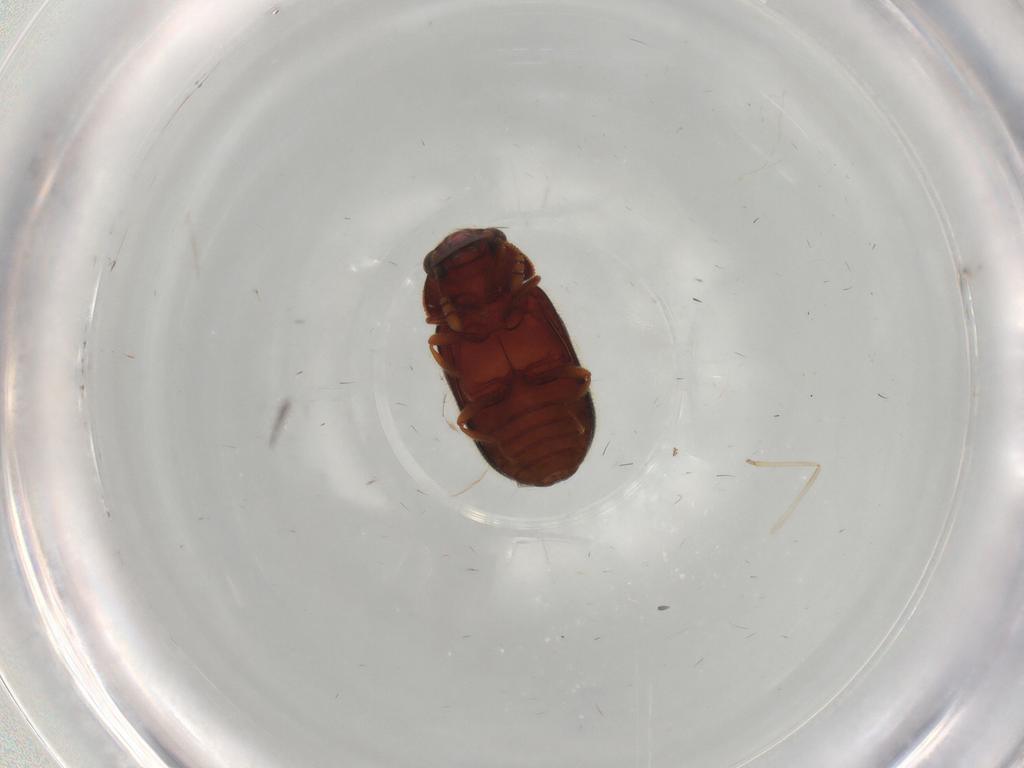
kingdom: Animalia
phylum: Arthropoda
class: Insecta
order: Coleoptera
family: Sphindidae
